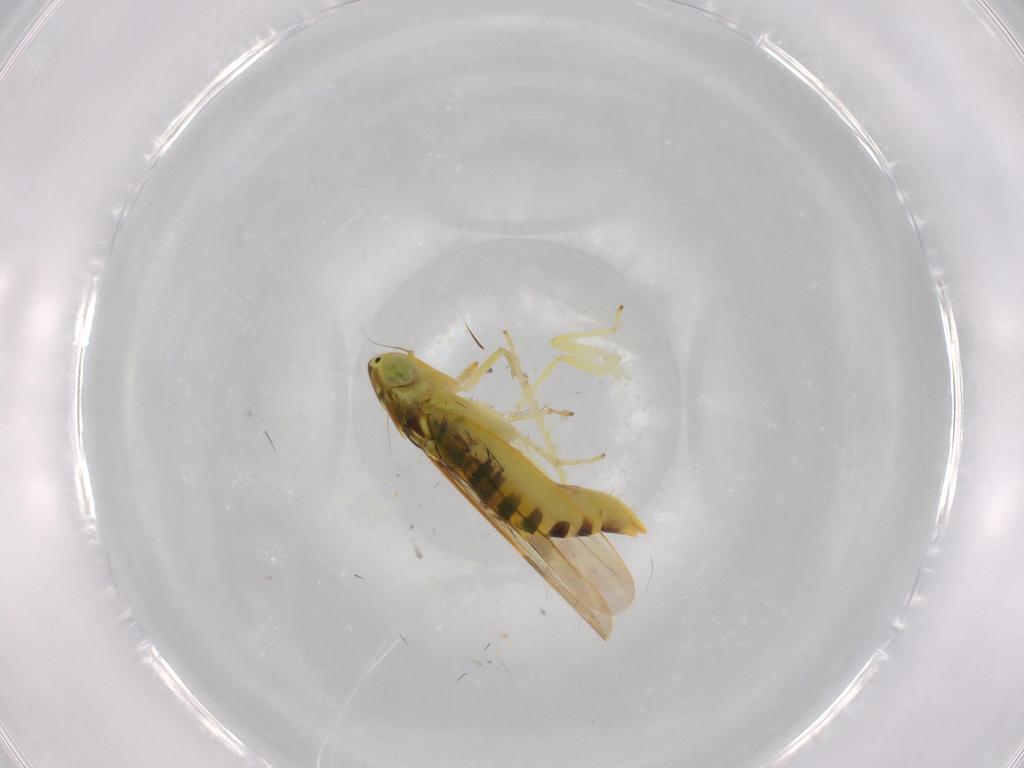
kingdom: Animalia
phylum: Arthropoda
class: Insecta
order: Hemiptera
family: Cicadellidae
